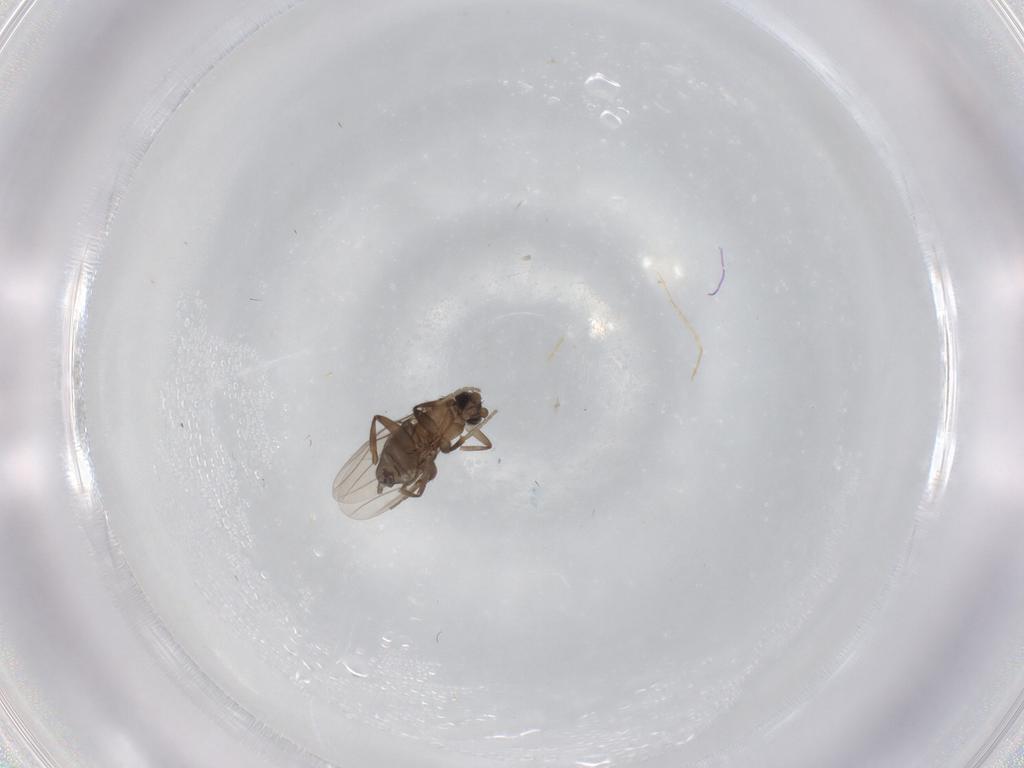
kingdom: Animalia
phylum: Arthropoda
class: Insecta
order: Diptera
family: Phoridae
